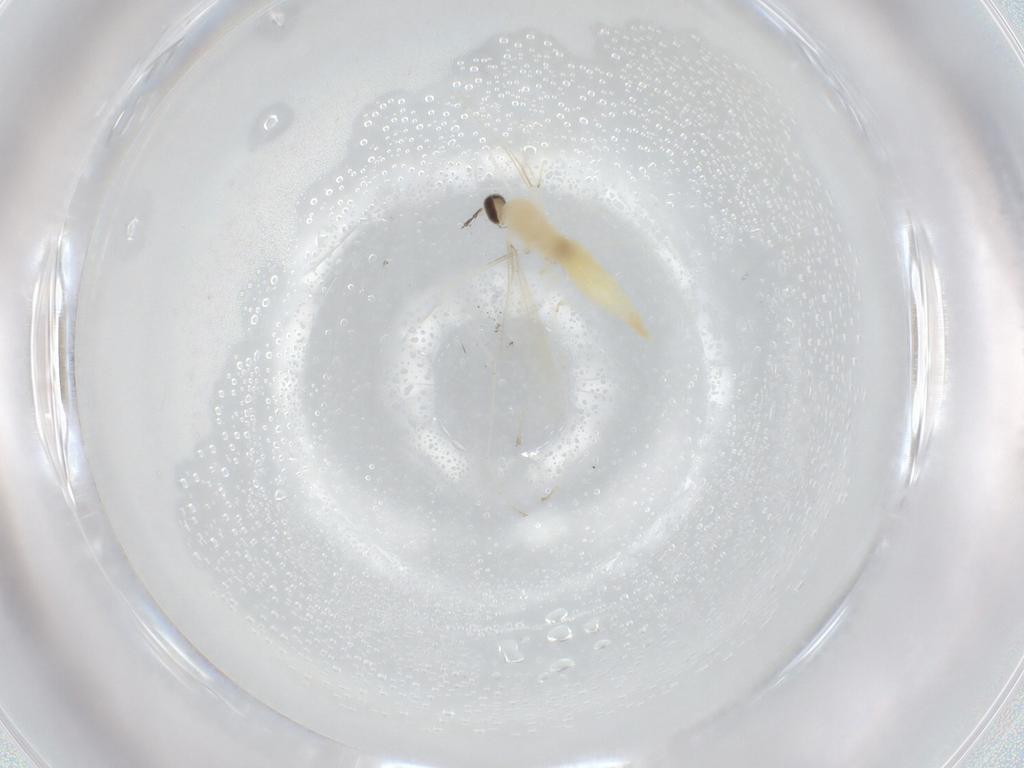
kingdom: Animalia
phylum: Arthropoda
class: Insecta
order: Diptera
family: Cecidomyiidae
